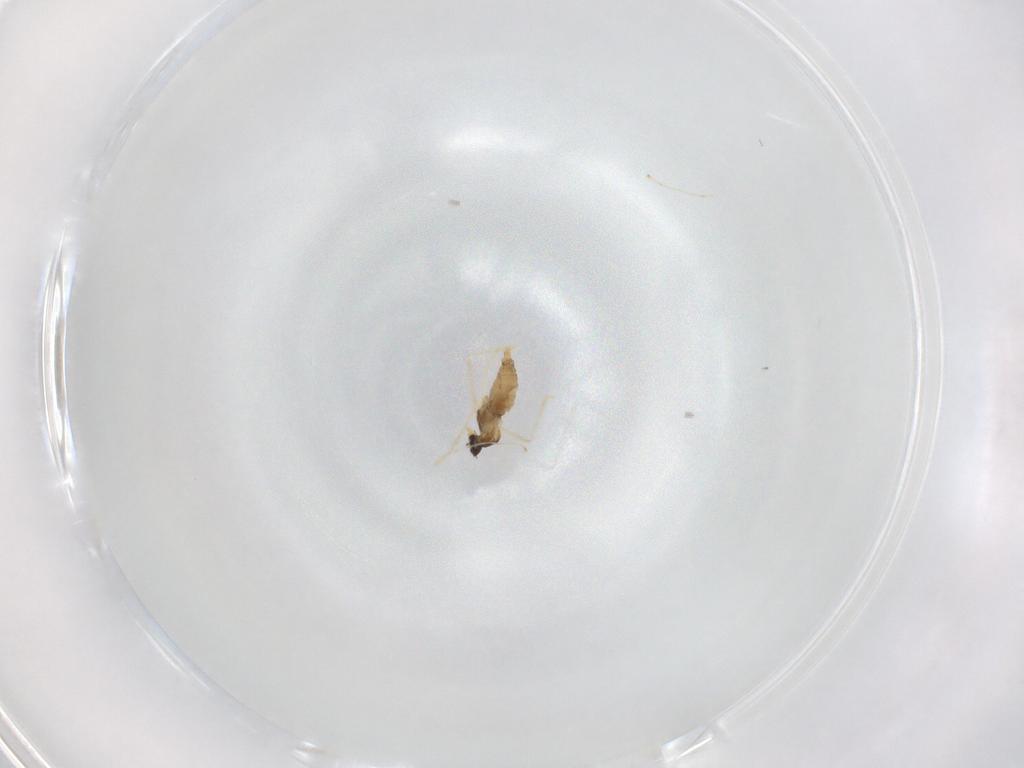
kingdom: Animalia
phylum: Arthropoda
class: Insecta
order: Diptera
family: Cecidomyiidae
